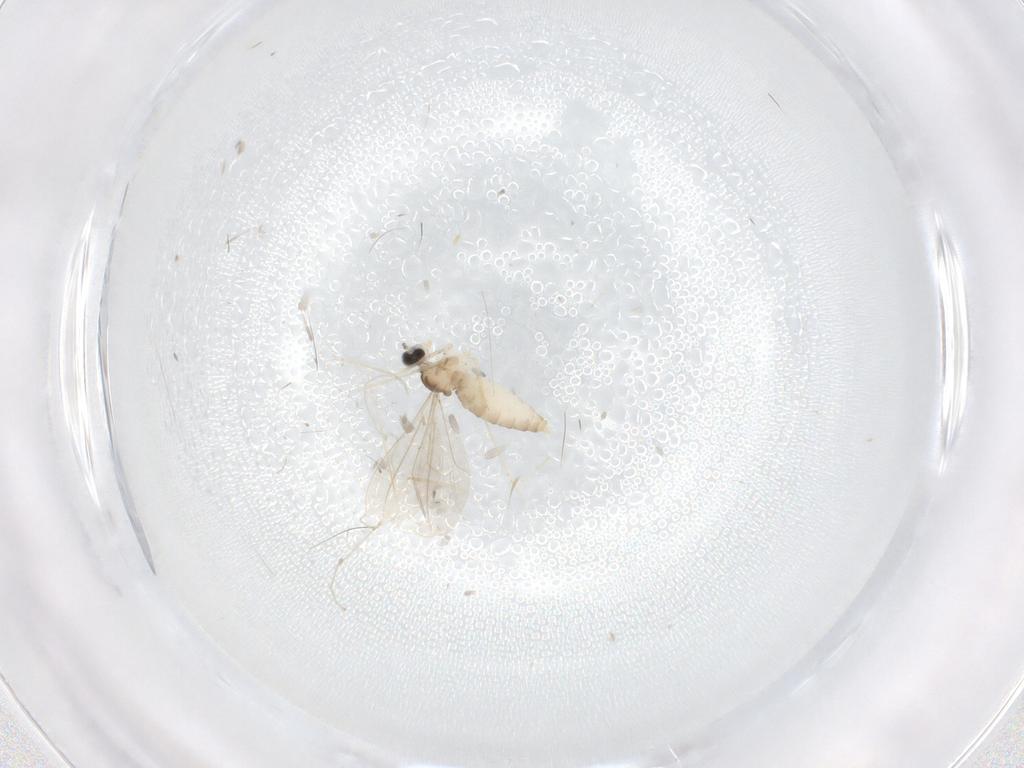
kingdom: Animalia
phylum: Arthropoda
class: Insecta
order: Diptera
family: Cecidomyiidae
